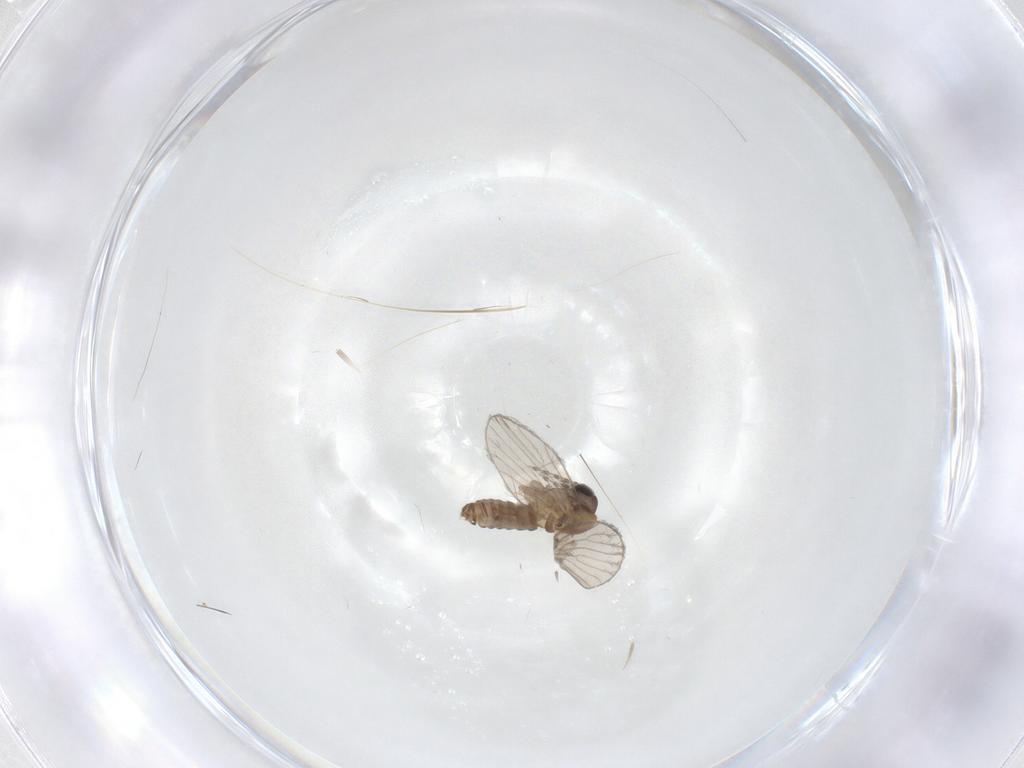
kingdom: Animalia
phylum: Arthropoda
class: Insecta
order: Diptera
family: Psychodidae
